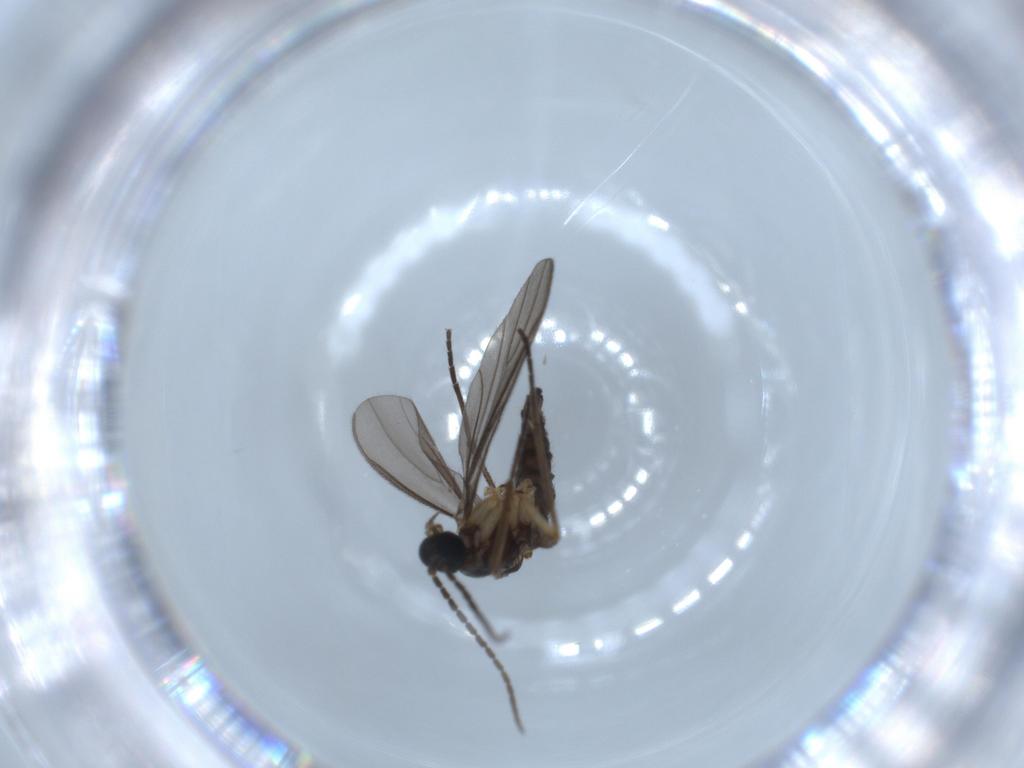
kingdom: Animalia
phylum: Arthropoda
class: Insecta
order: Diptera
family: Sciaridae
